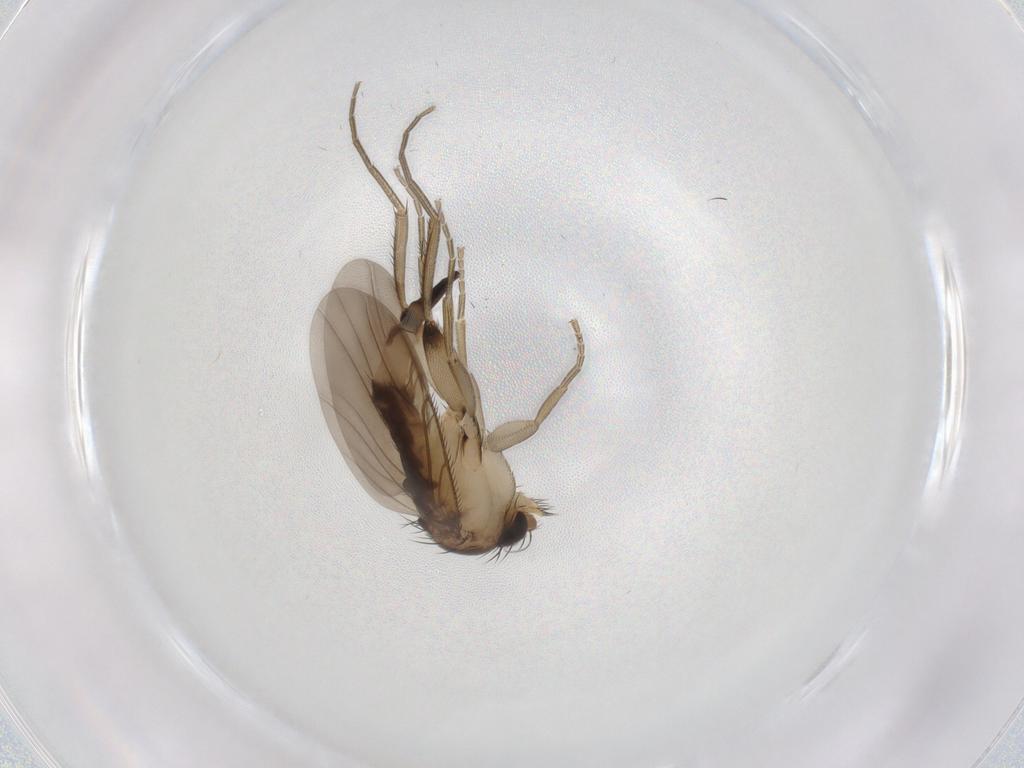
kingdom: Animalia
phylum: Arthropoda
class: Insecta
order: Diptera
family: Phoridae
